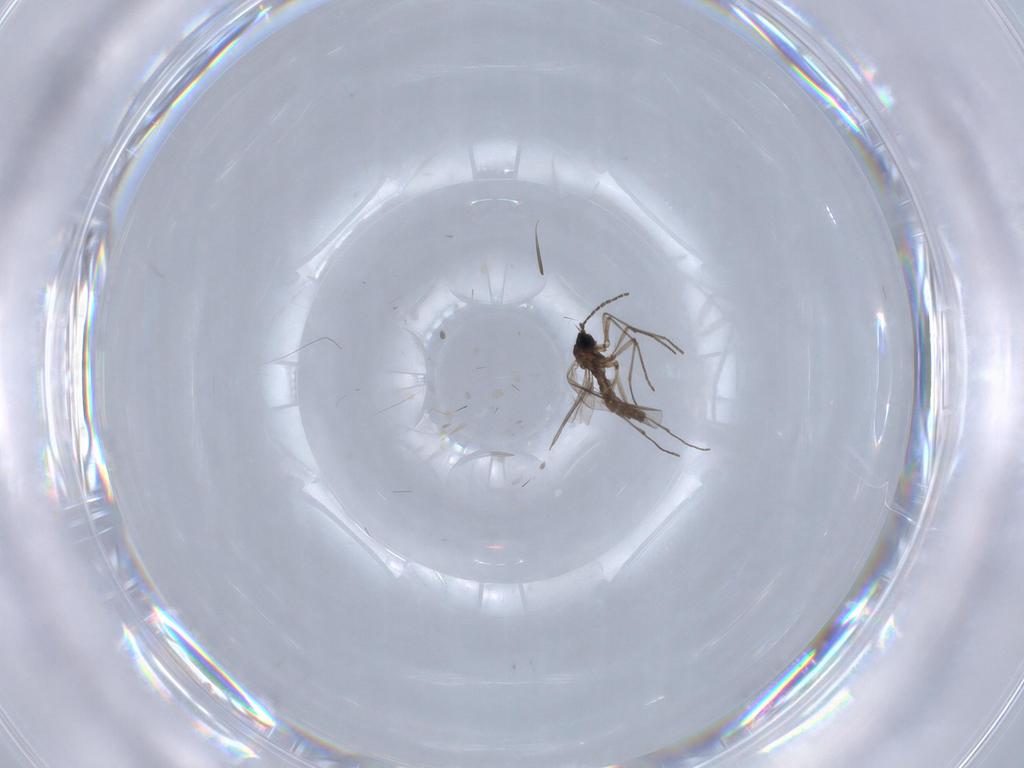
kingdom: Animalia
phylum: Arthropoda
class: Insecta
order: Diptera
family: Sciaridae
